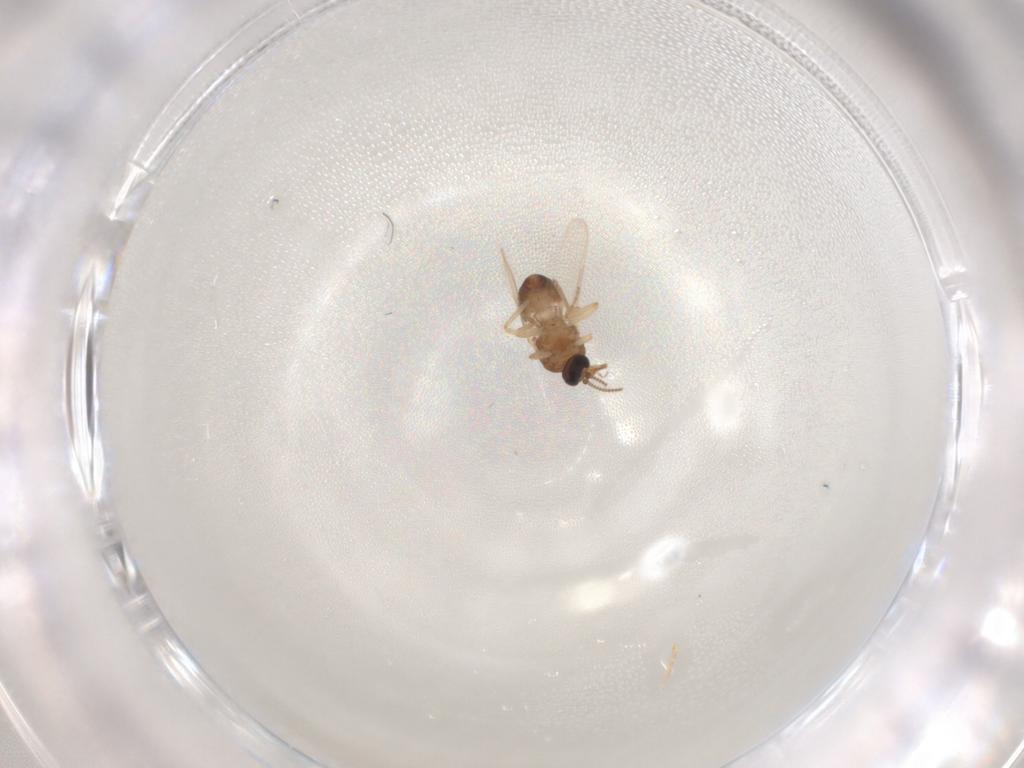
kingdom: Animalia
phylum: Arthropoda
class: Insecta
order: Diptera
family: Ceratopogonidae
